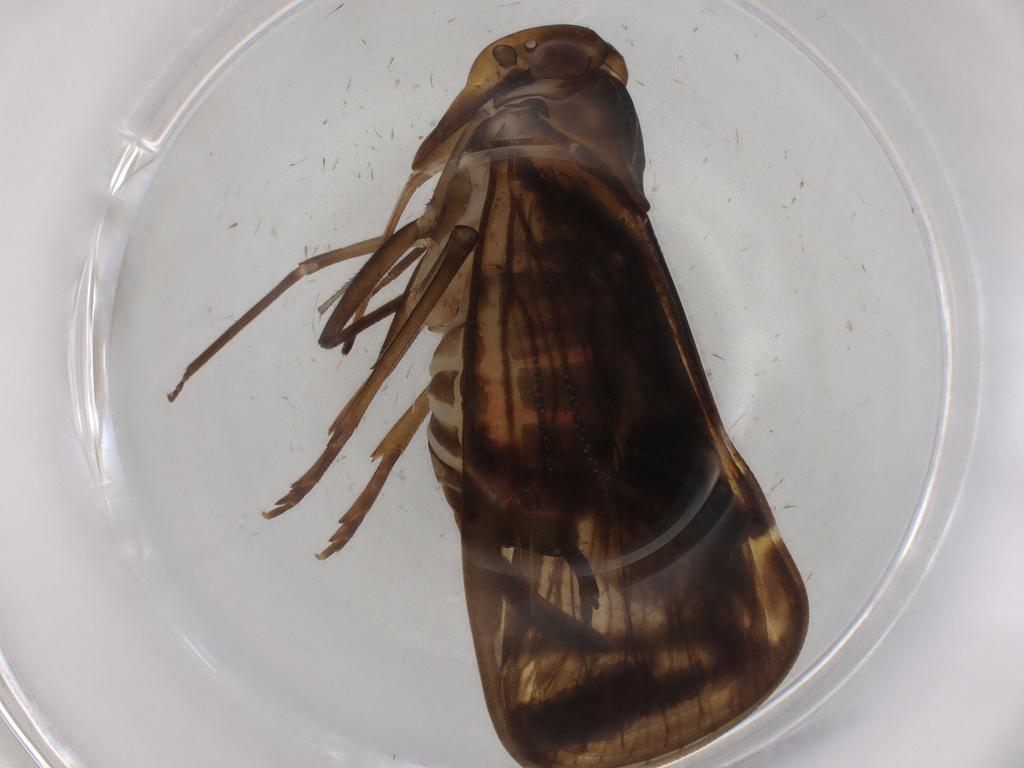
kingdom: Animalia
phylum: Arthropoda
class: Insecta
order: Hemiptera
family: Cixiidae
